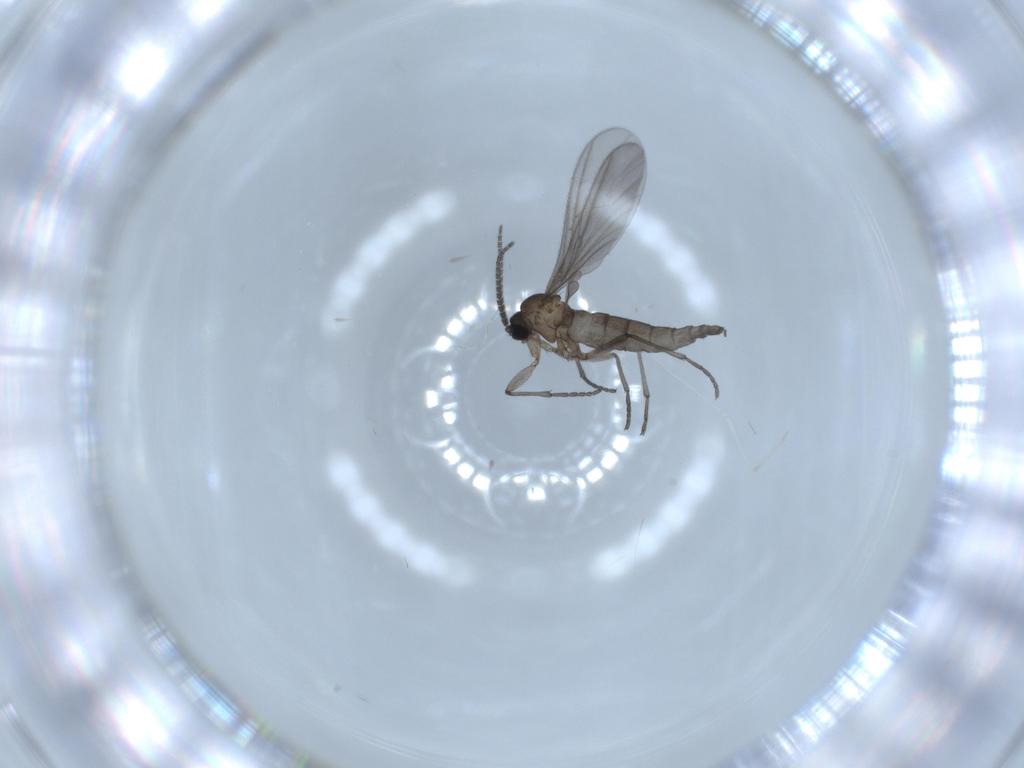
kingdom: Animalia
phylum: Arthropoda
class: Insecta
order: Diptera
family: Sciaridae
